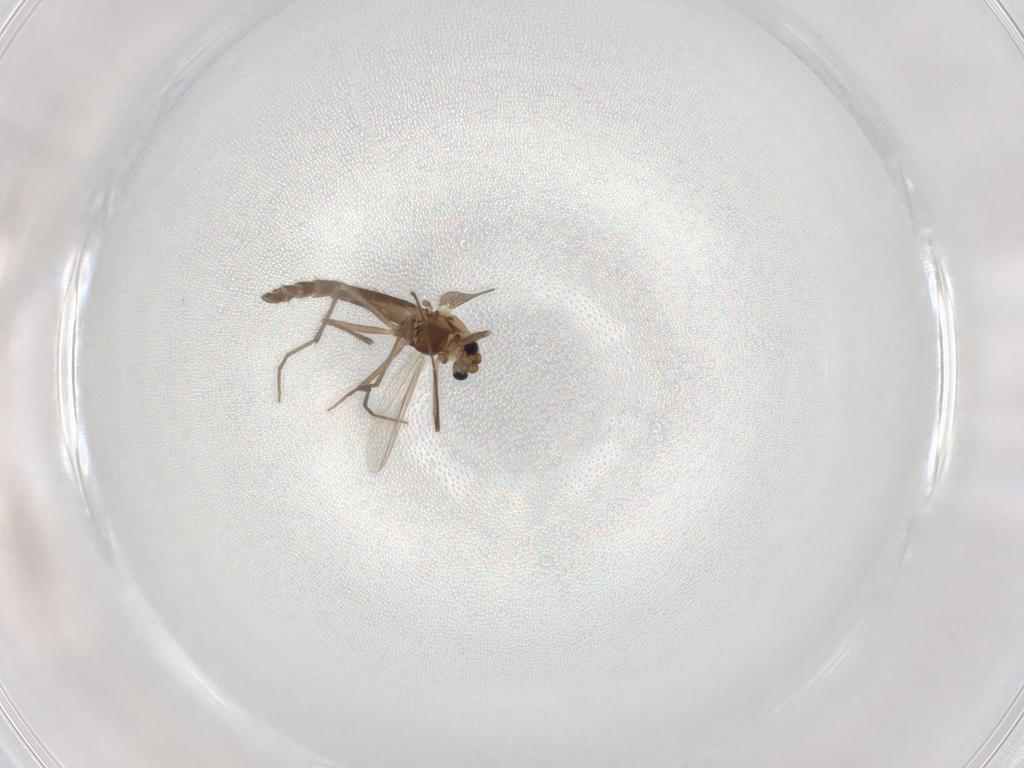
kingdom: Animalia
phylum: Arthropoda
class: Insecta
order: Diptera
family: Chironomidae
